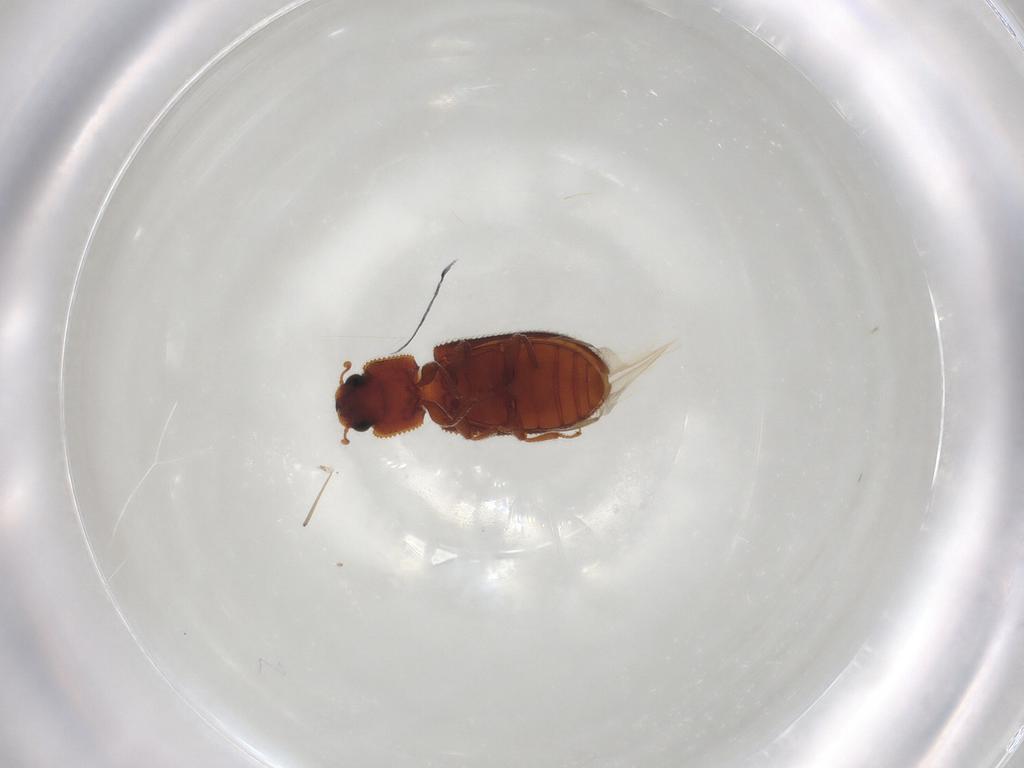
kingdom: Animalia
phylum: Arthropoda
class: Insecta
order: Coleoptera
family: Zopheridae
